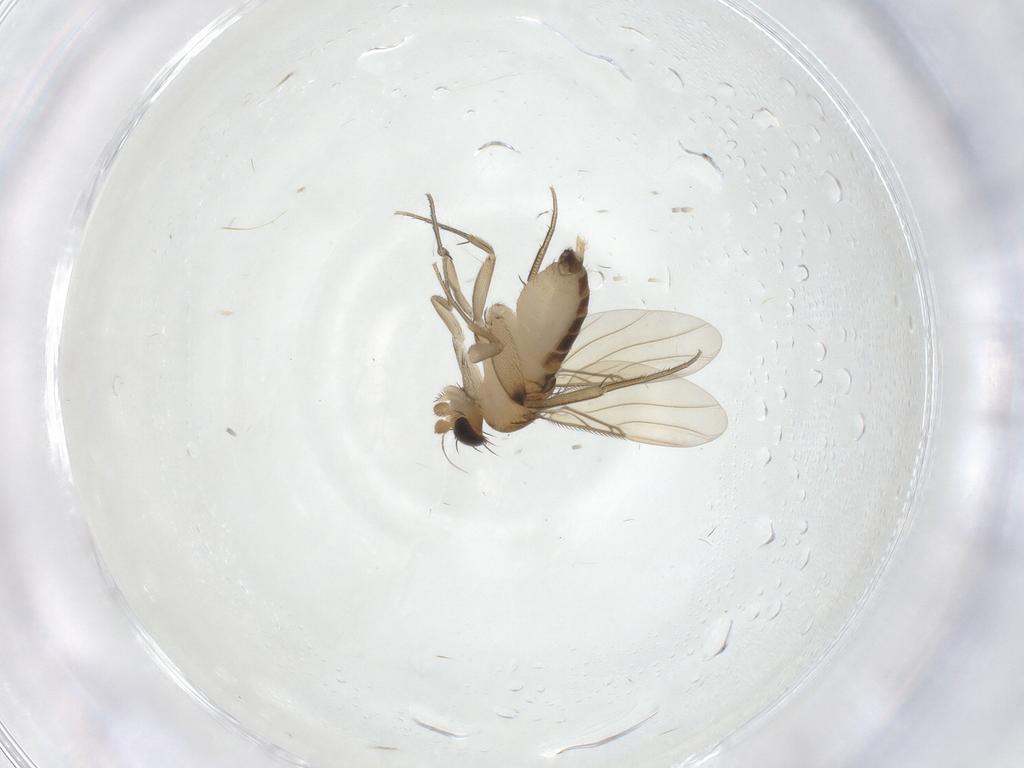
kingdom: Animalia
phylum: Arthropoda
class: Insecta
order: Diptera
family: Phoridae
